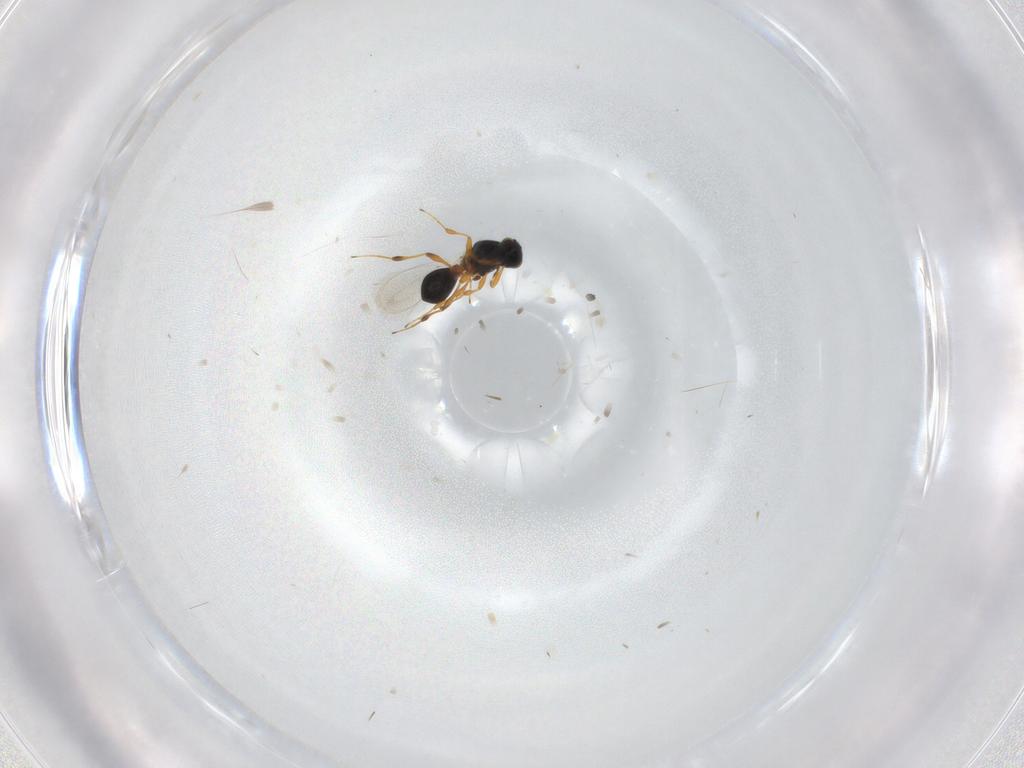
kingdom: Animalia
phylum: Arthropoda
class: Insecta
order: Hymenoptera
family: Platygastridae
